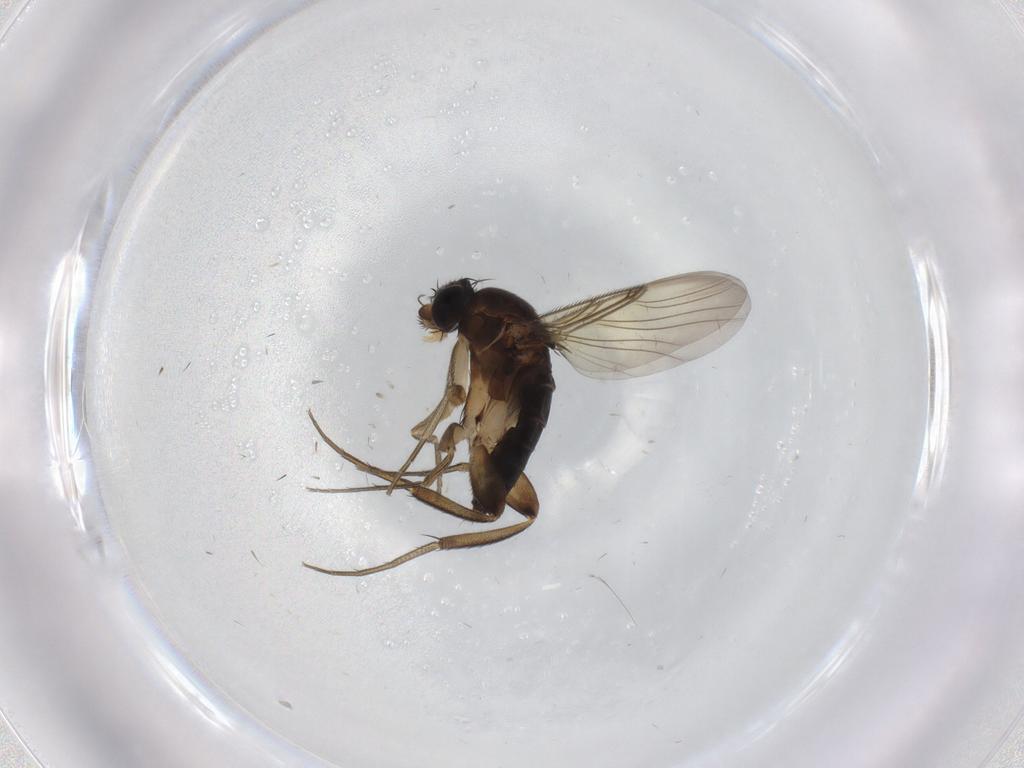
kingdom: Animalia
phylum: Arthropoda
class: Insecta
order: Diptera
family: Phoridae
